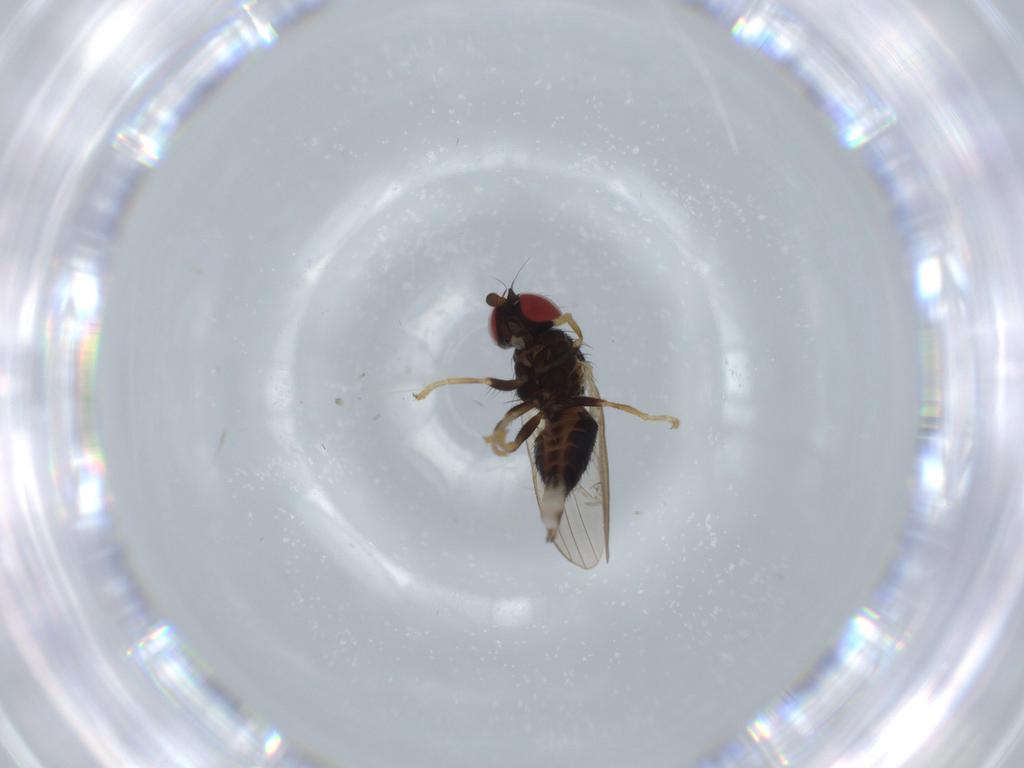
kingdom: Animalia
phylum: Arthropoda
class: Insecta
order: Diptera
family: Chamaemyiidae
